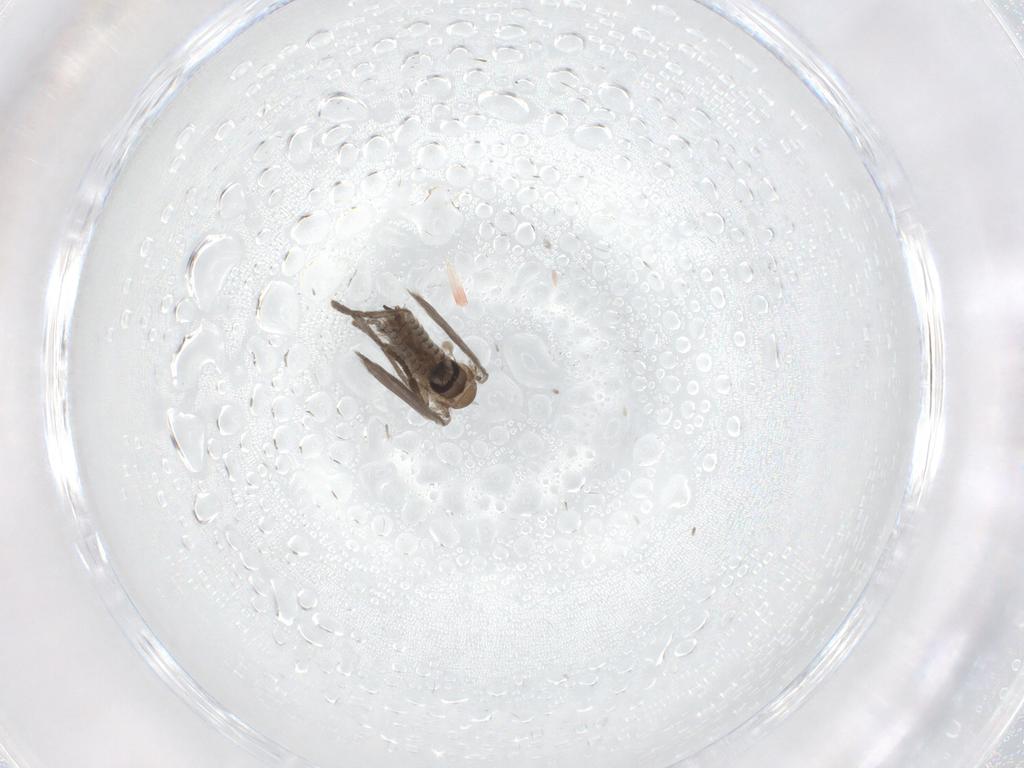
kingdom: Animalia
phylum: Arthropoda
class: Insecta
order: Diptera
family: Psychodidae
